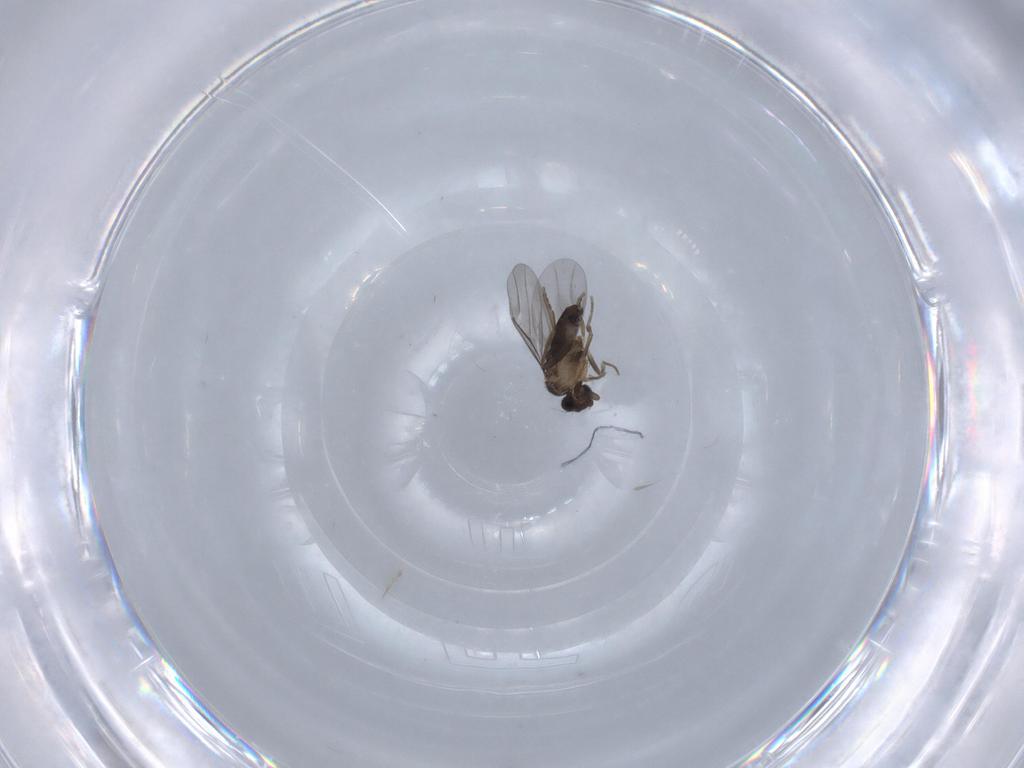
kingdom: Animalia
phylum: Arthropoda
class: Insecta
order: Diptera
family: Chironomidae
